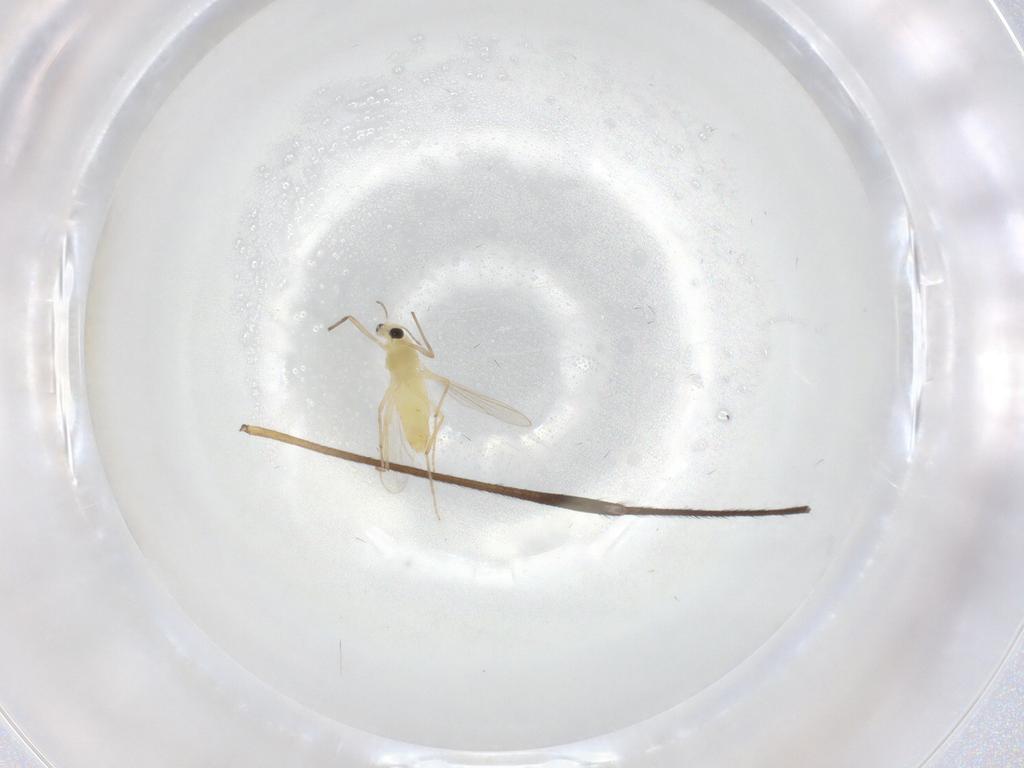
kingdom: Animalia
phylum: Arthropoda
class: Insecta
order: Diptera
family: Chironomidae
